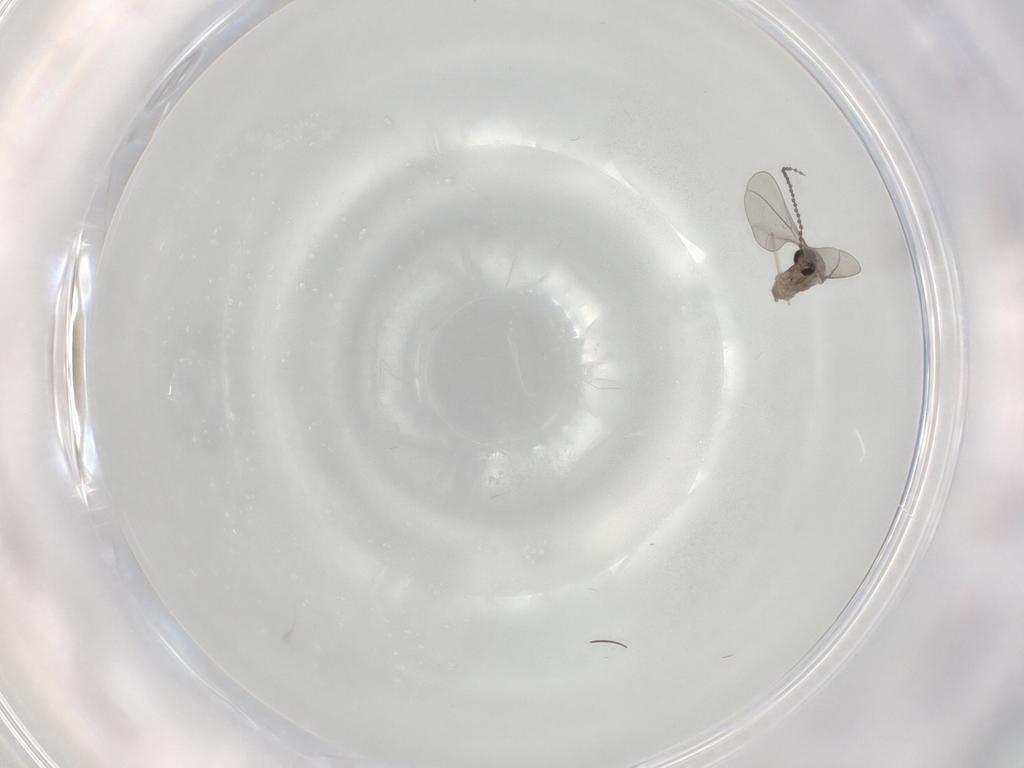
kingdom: Animalia
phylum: Arthropoda
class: Insecta
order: Diptera
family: Cecidomyiidae
